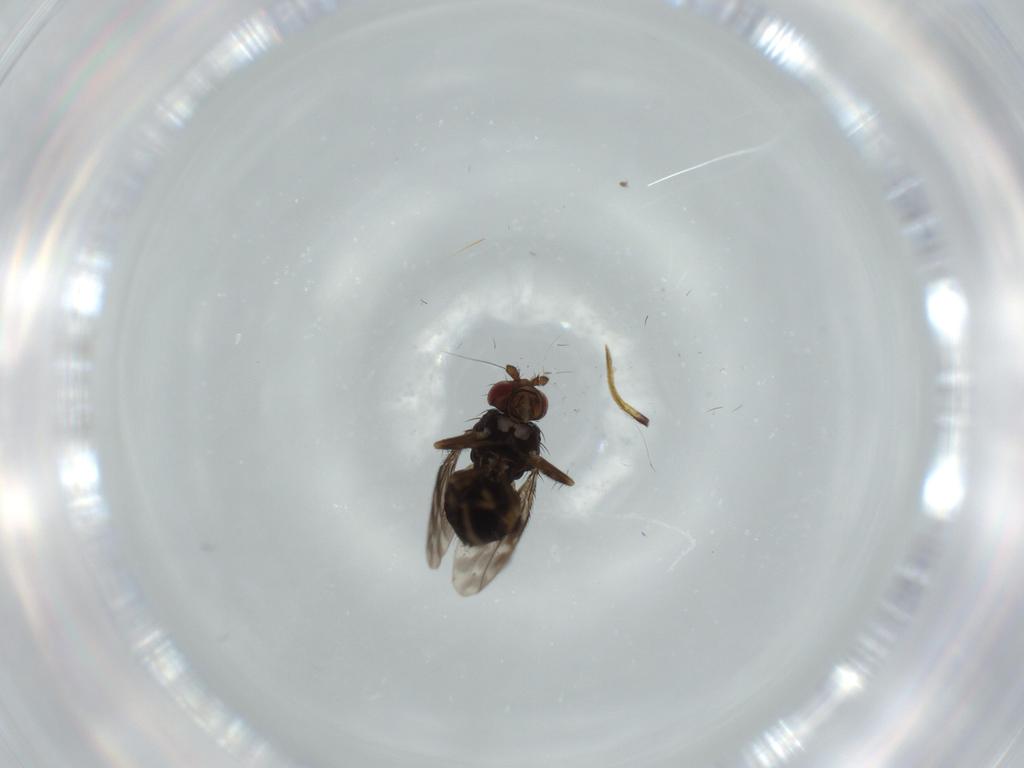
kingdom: Animalia
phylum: Arthropoda
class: Insecta
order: Diptera
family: Sphaeroceridae
